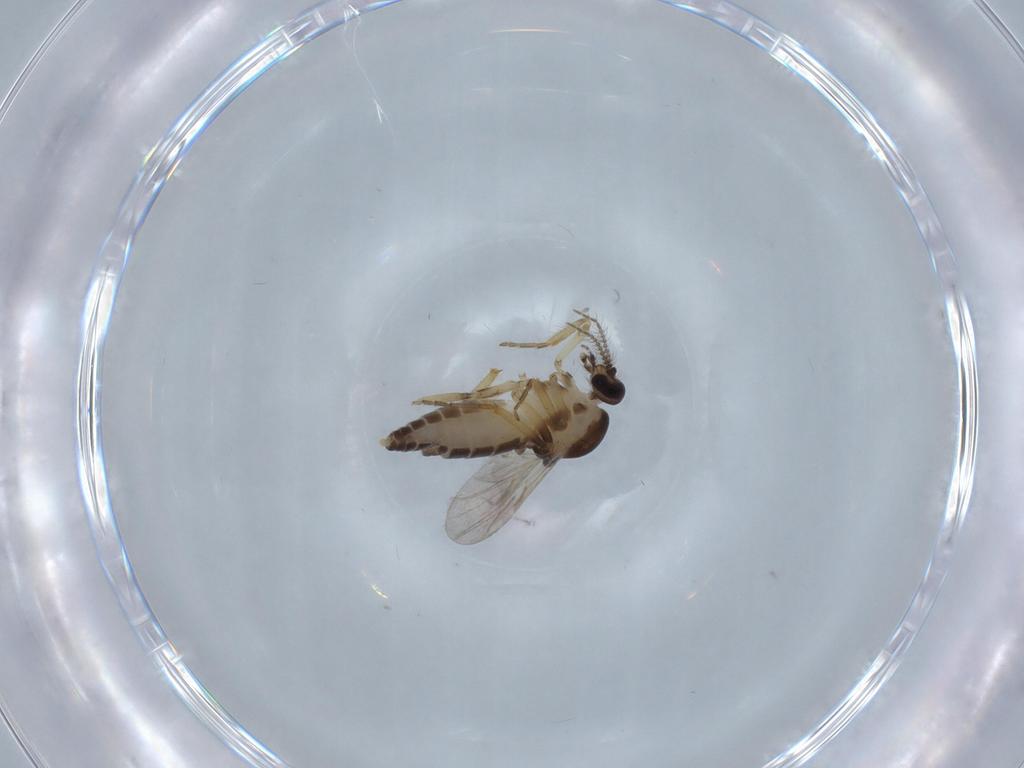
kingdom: Animalia
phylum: Arthropoda
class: Insecta
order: Diptera
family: Ceratopogonidae
